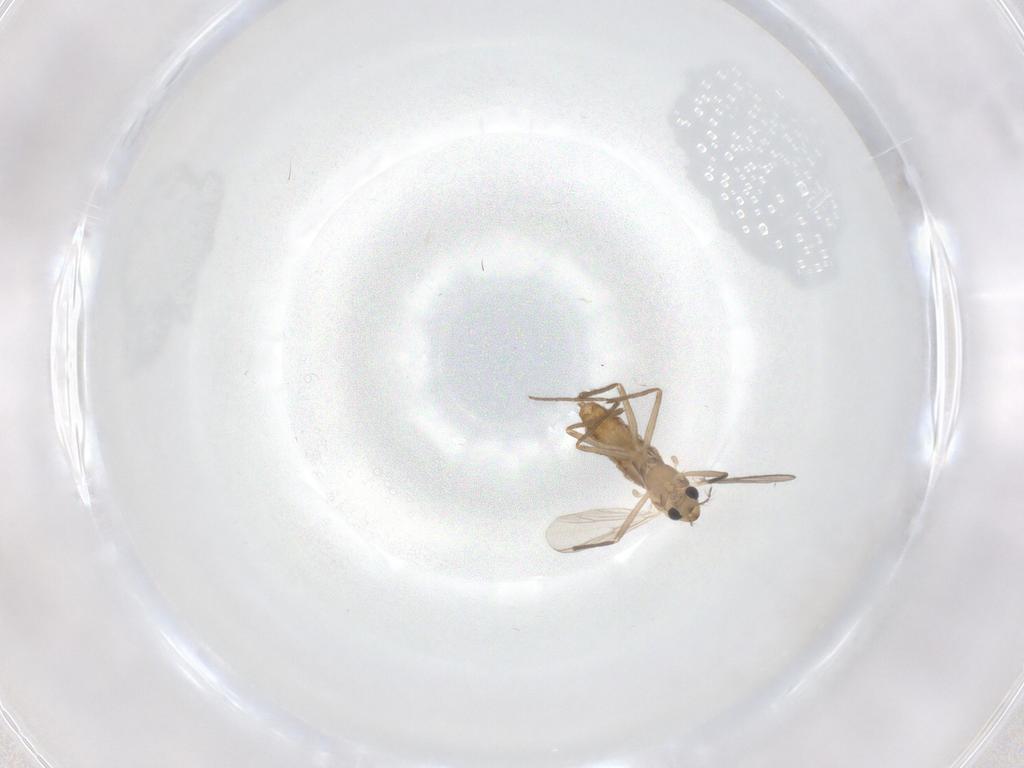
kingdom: Animalia
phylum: Arthropoda
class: Insecta
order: Diptera
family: Chironomidae
